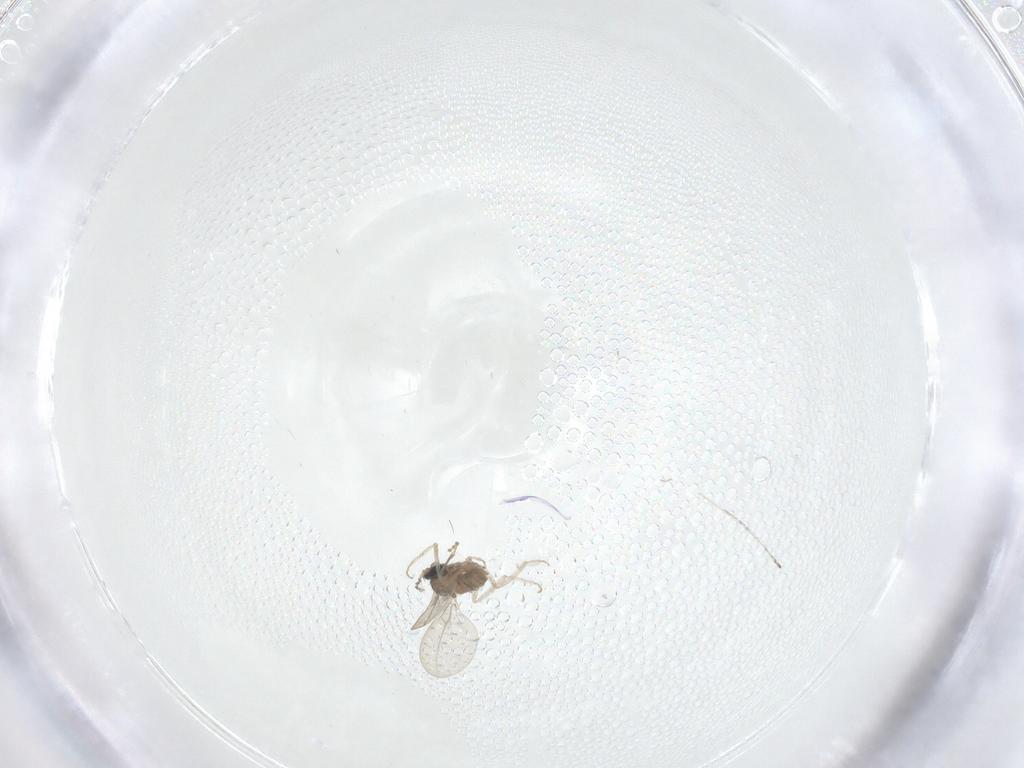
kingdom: Animalia
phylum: Arthropoda
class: Insecta
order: Diptera
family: Cecidomyiidae
